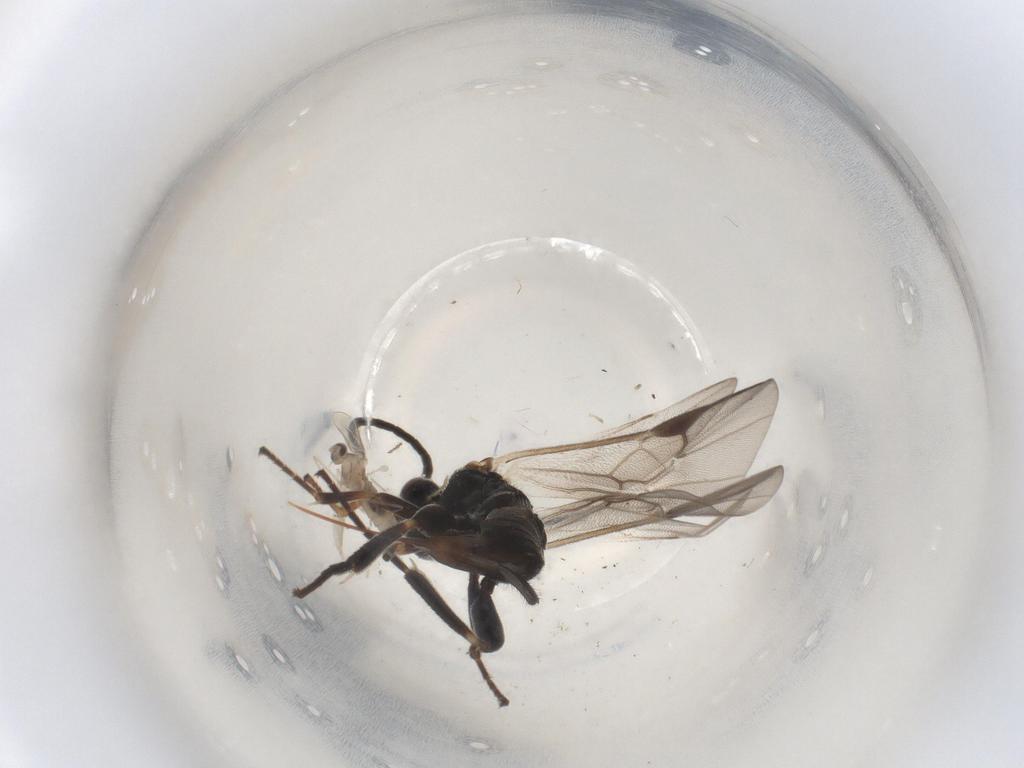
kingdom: Animalia
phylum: Arthropoda
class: Insecta
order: Hymenoptera
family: Braconidae
